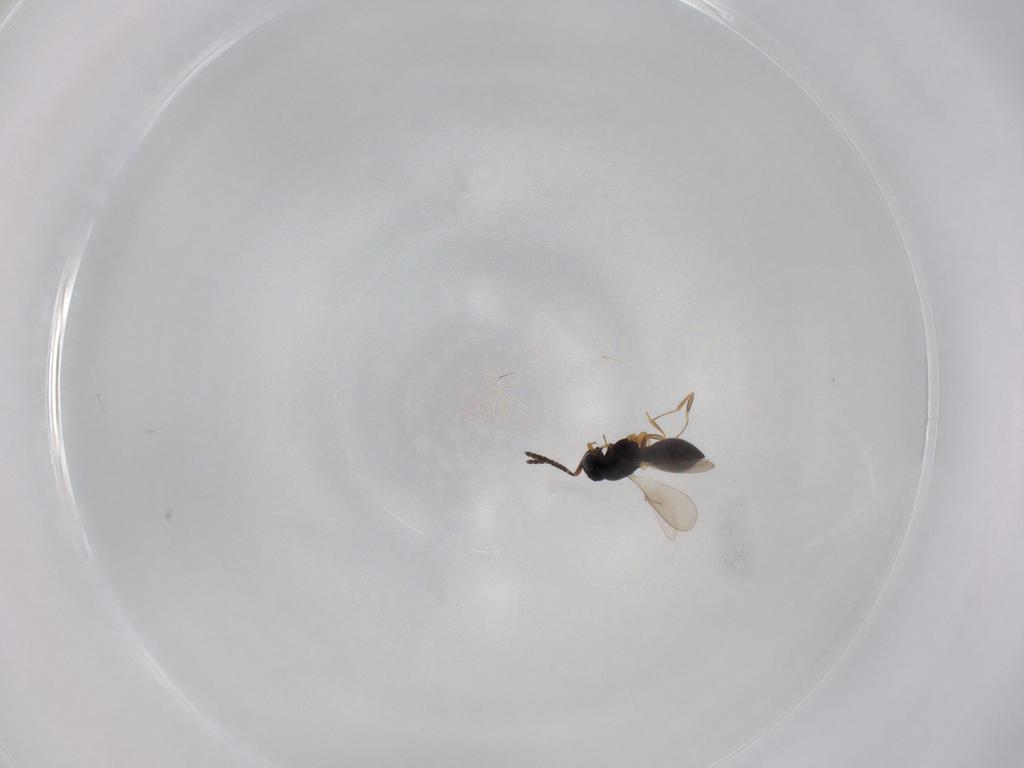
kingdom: Animalia
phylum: Arthropoda
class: Insecta
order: Hymenoptera
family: Scelionidae
